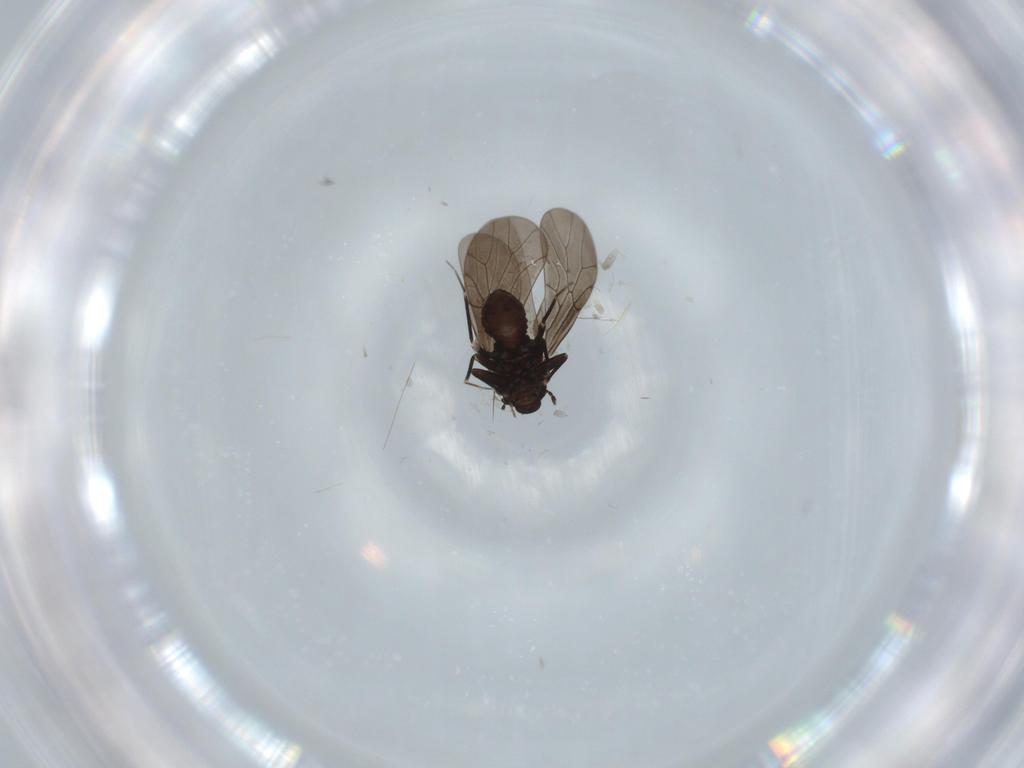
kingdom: Animalia
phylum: Arthropoda
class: Insecta
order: Psocodea
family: Lepidopsocidae
